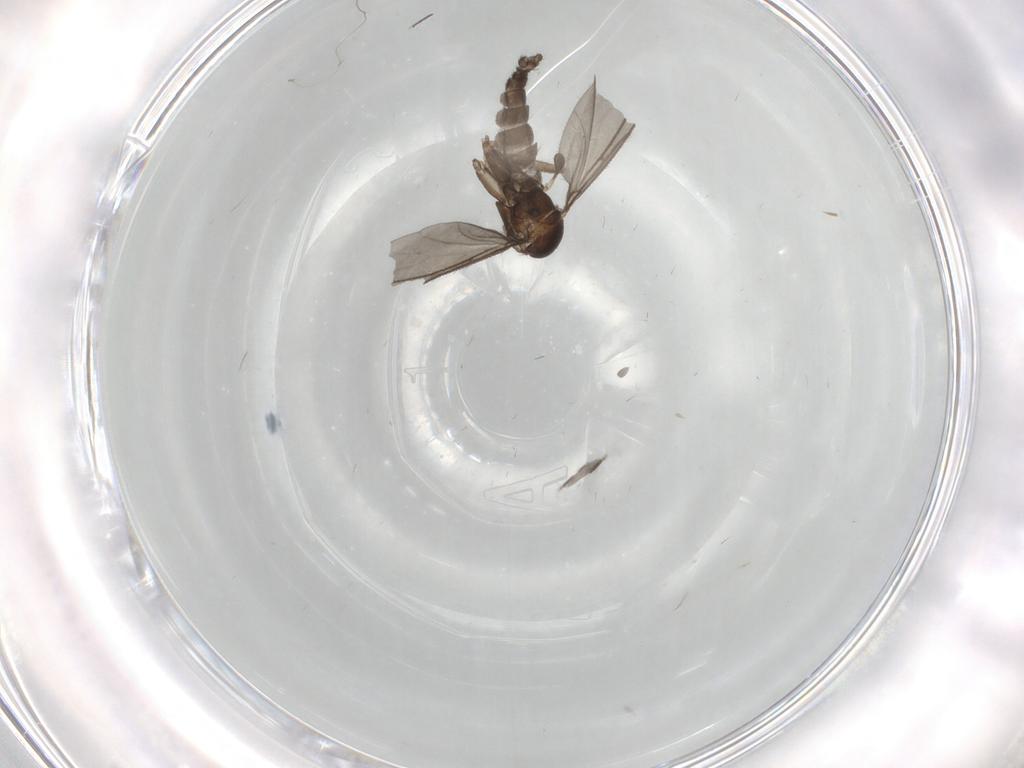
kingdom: Animalia
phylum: Arthropoda
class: Insecta
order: Diptera
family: Sciaridae
